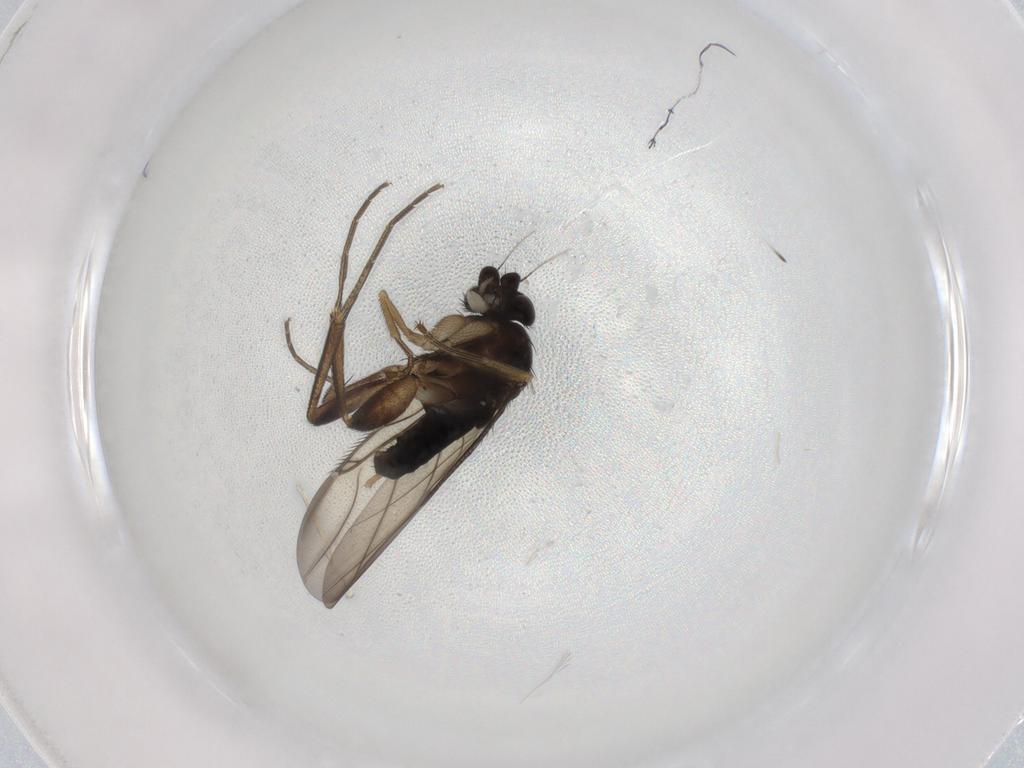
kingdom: Animalia
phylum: Arthropoda
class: Insecta
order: Diptera
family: Phoridae
